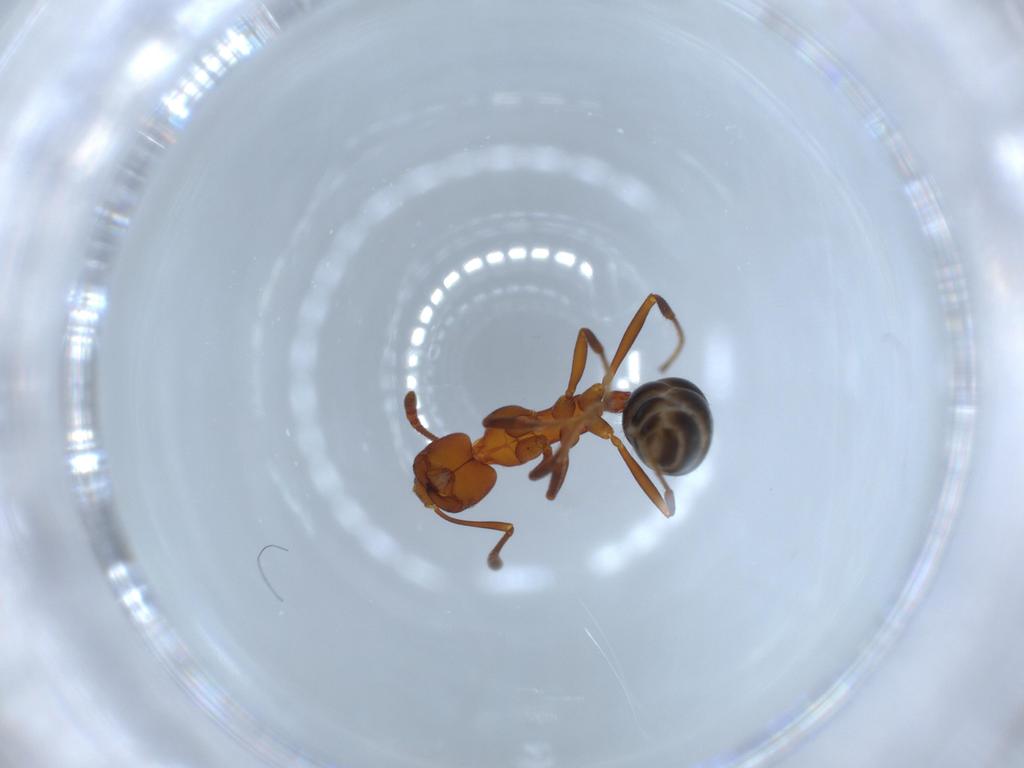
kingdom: Animalia
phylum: Arthropoda
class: Insecta
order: Hymenoptera
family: Formicidae
